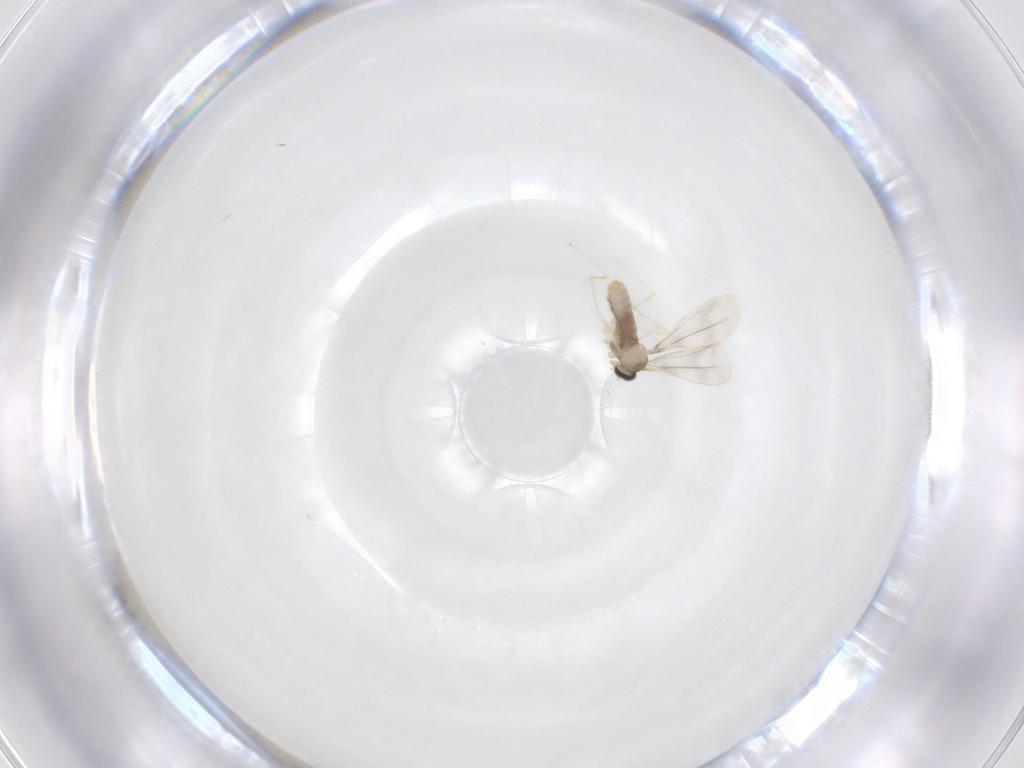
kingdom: Animalia
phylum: Arthropoda
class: Insecta
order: Diptera
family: Cecidomyiidae
